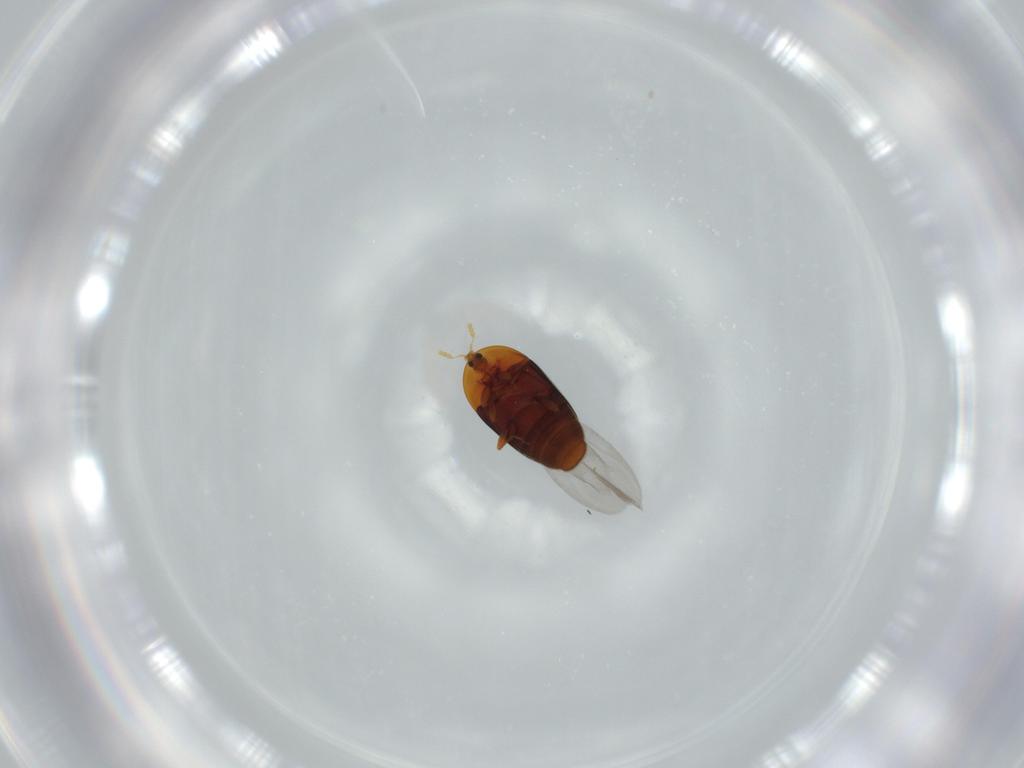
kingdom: Animalia
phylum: Arthropoda
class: Insecta
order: Coleoptera
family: Corylophidae
